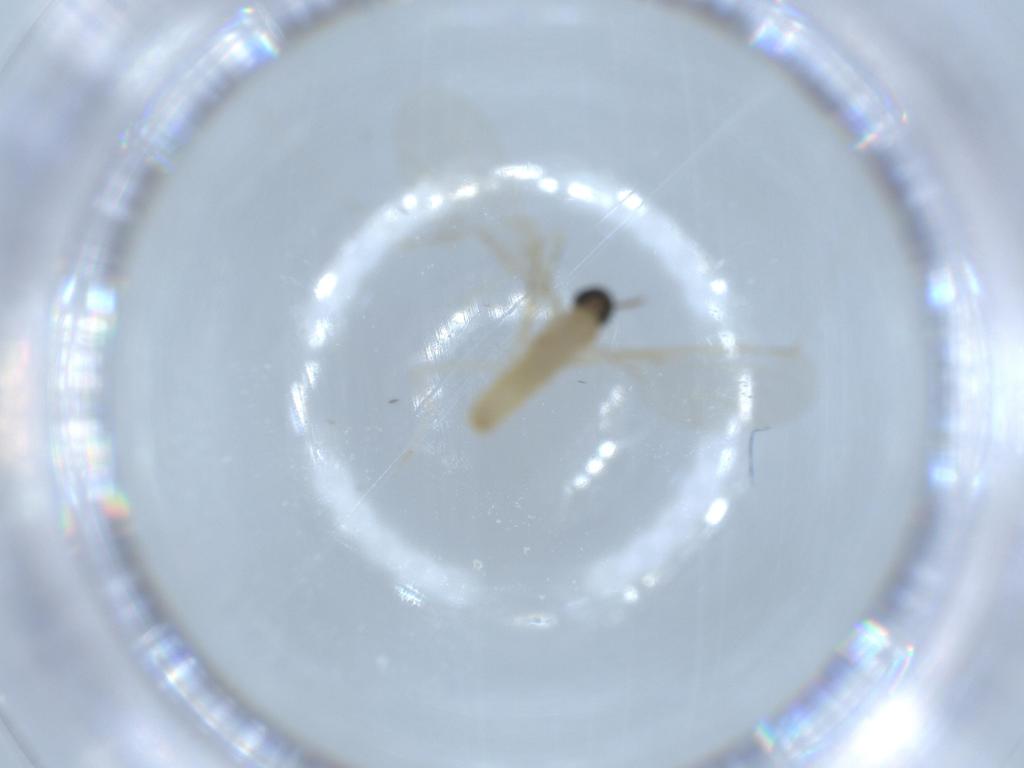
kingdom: Animalia
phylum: Arthropoda
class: Insecta
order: Diptera
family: Cecidomyiidae
